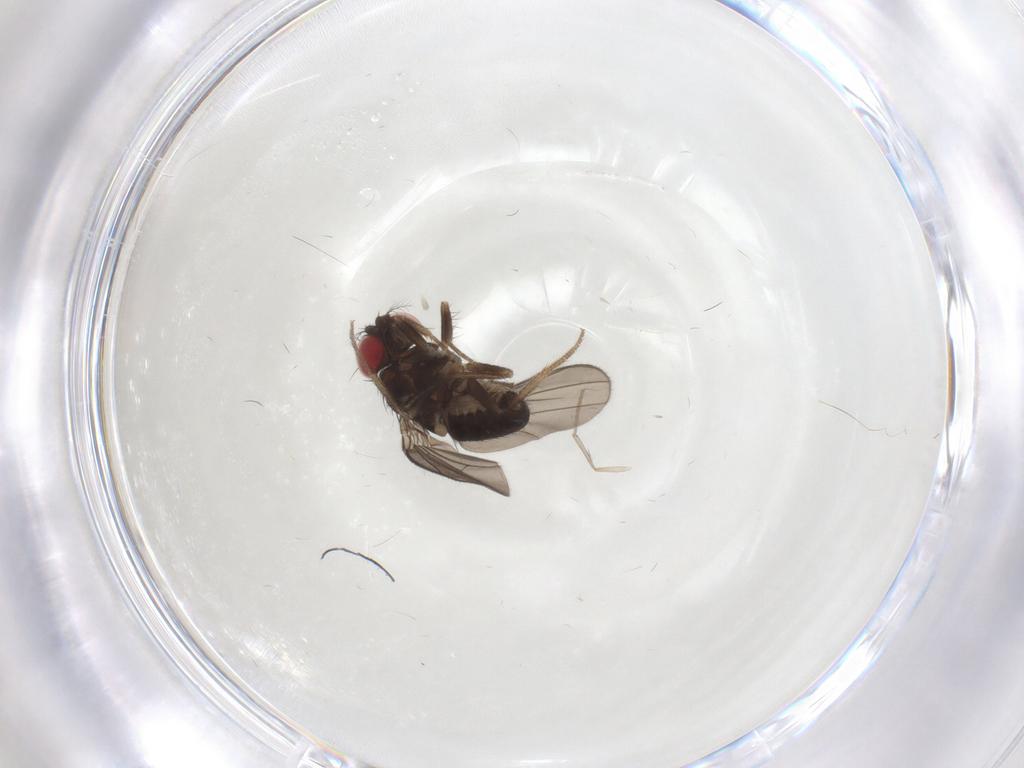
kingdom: Animalia
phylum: Arthropoda
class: Insecta
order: Diptera
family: Drosophilidae
